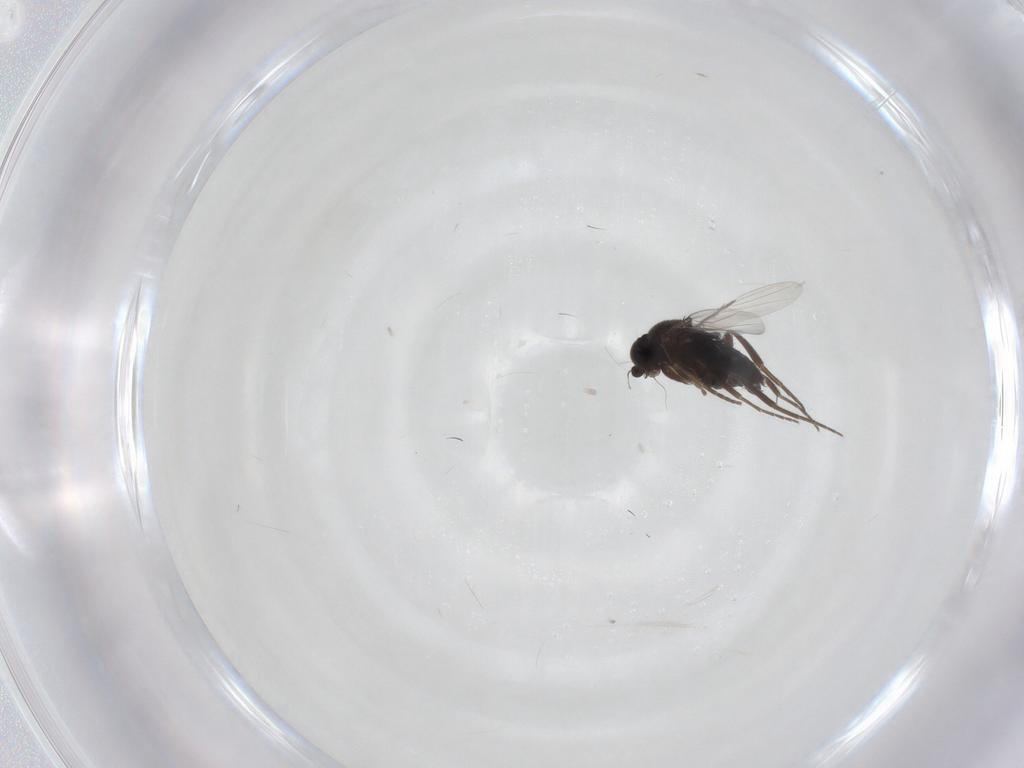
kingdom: Animalia
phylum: Arthropoda
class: Insecta
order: Diptera
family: Phoridae
